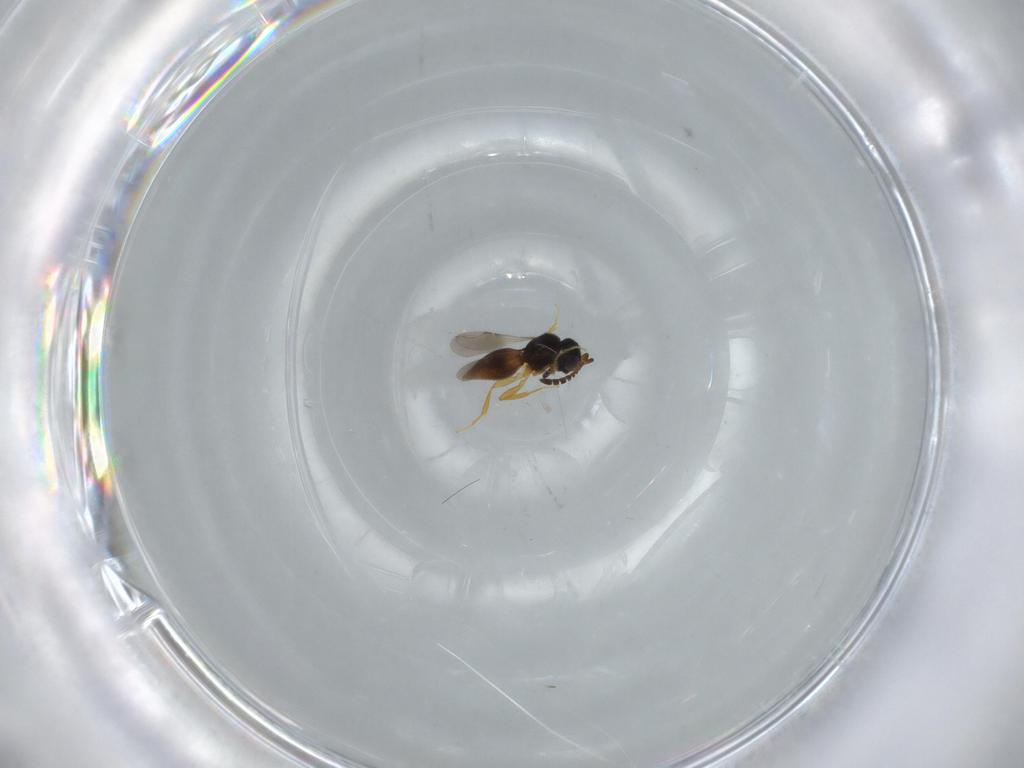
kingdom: Animalia
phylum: Arthropoda
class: Insecta
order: Hymenoptera
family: Ceraphronidae
